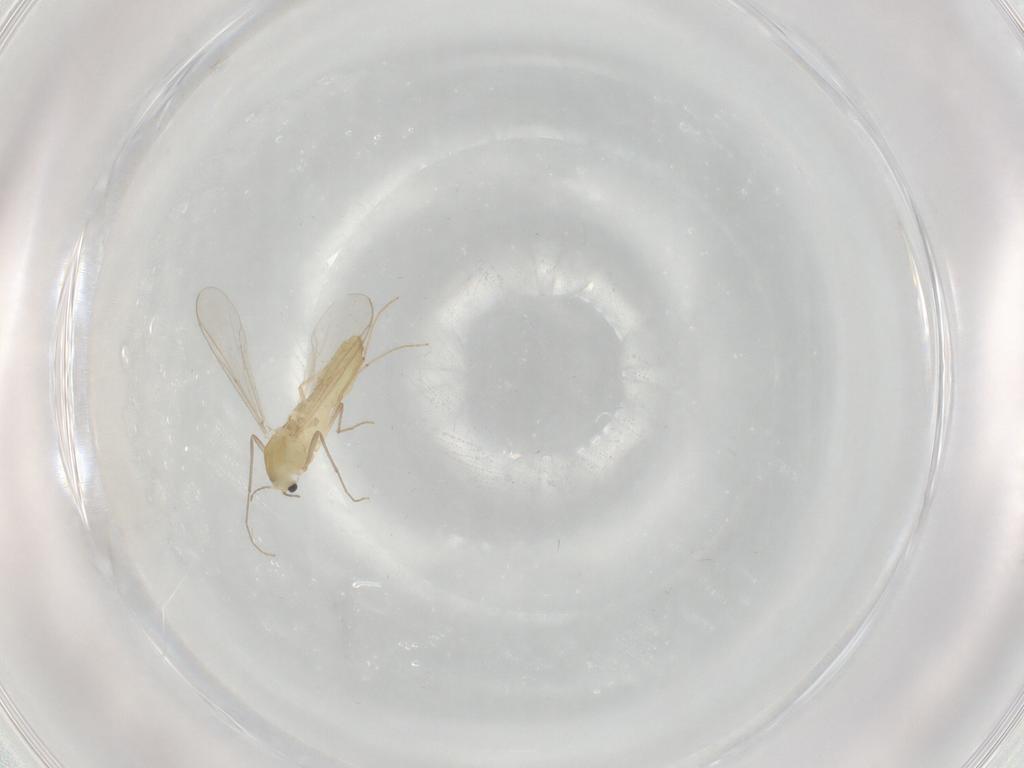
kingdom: Animalia
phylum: Arthropoda
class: Insecta
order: Diptera
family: Chironomidae
